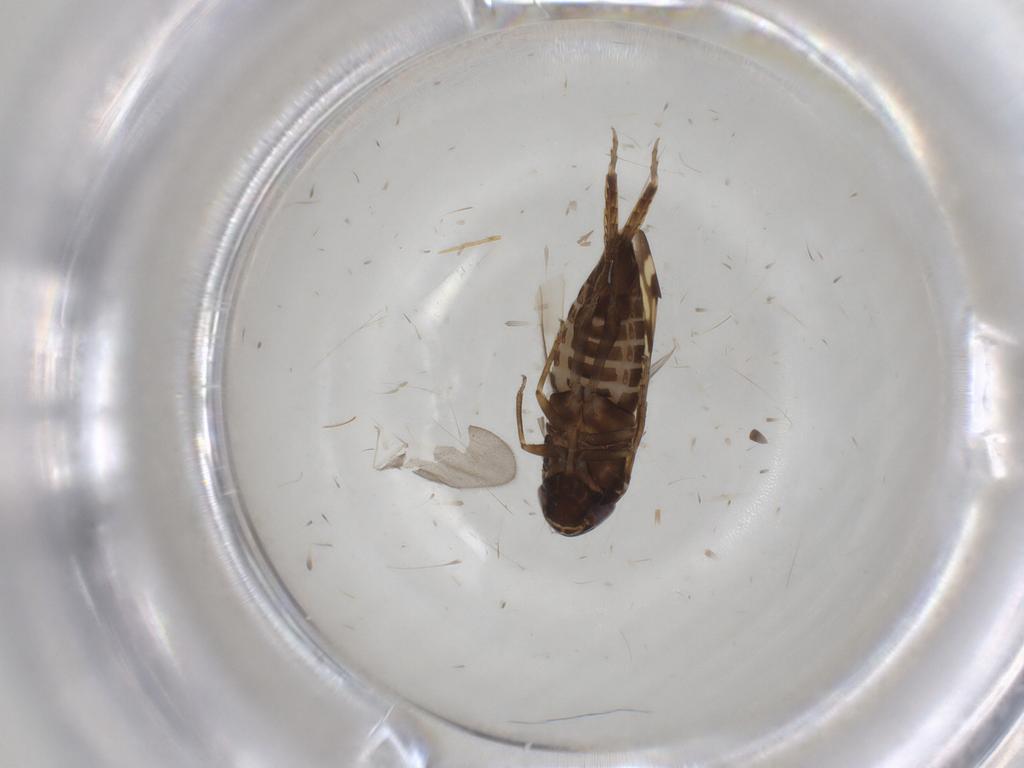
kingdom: Animalia
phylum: Arthropoda
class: Insecta
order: Hemiptera
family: Cicadellidae
